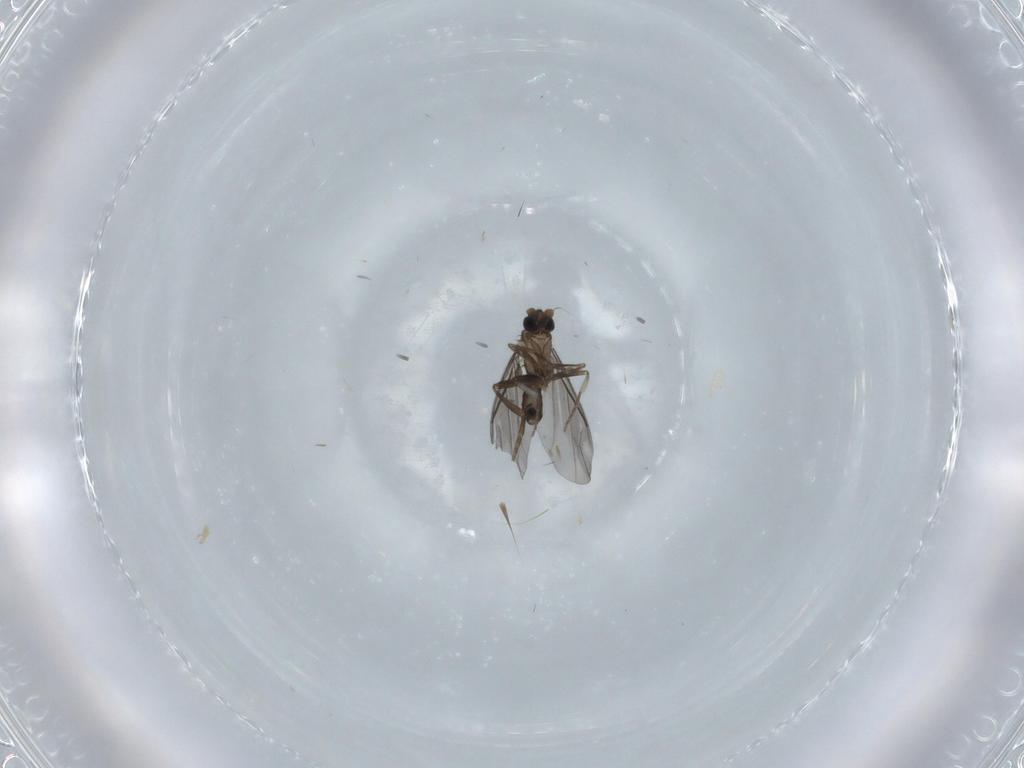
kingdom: Animalia
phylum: Arthropoda
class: Insecta
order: Diptera
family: Phoridae
